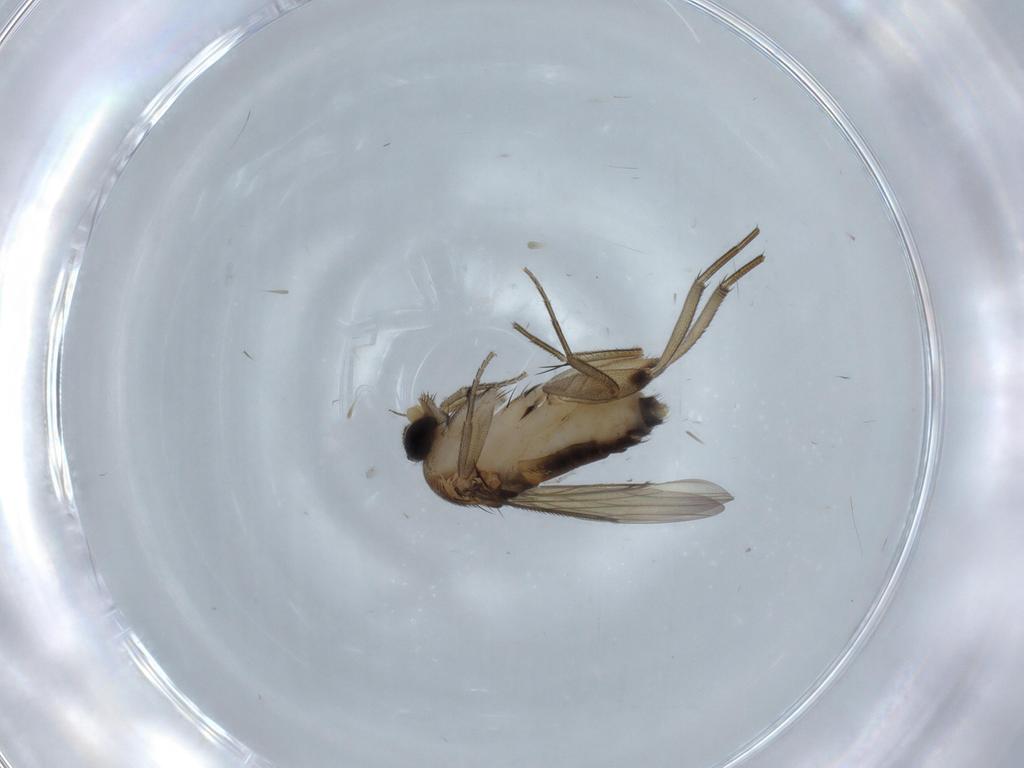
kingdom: Animalia
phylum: Arthropoda
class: Insecta
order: Diptera
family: Phoridae
